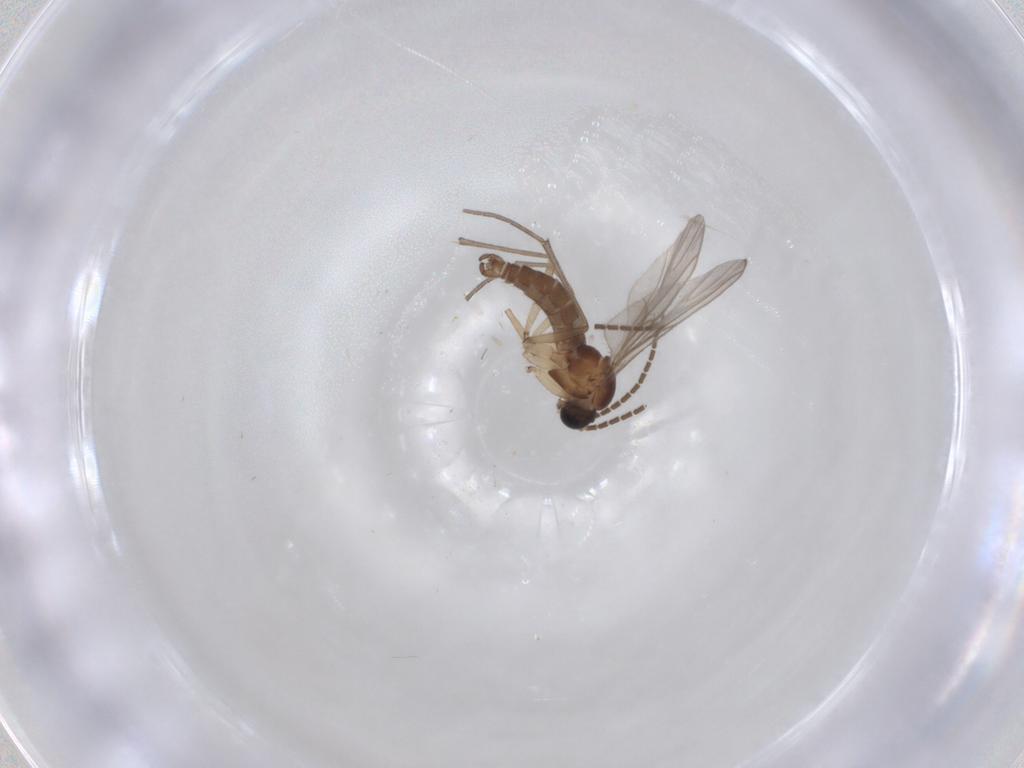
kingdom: Animalia
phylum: Arthropoda
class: Insecta
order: Diptera
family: Sciaridae
